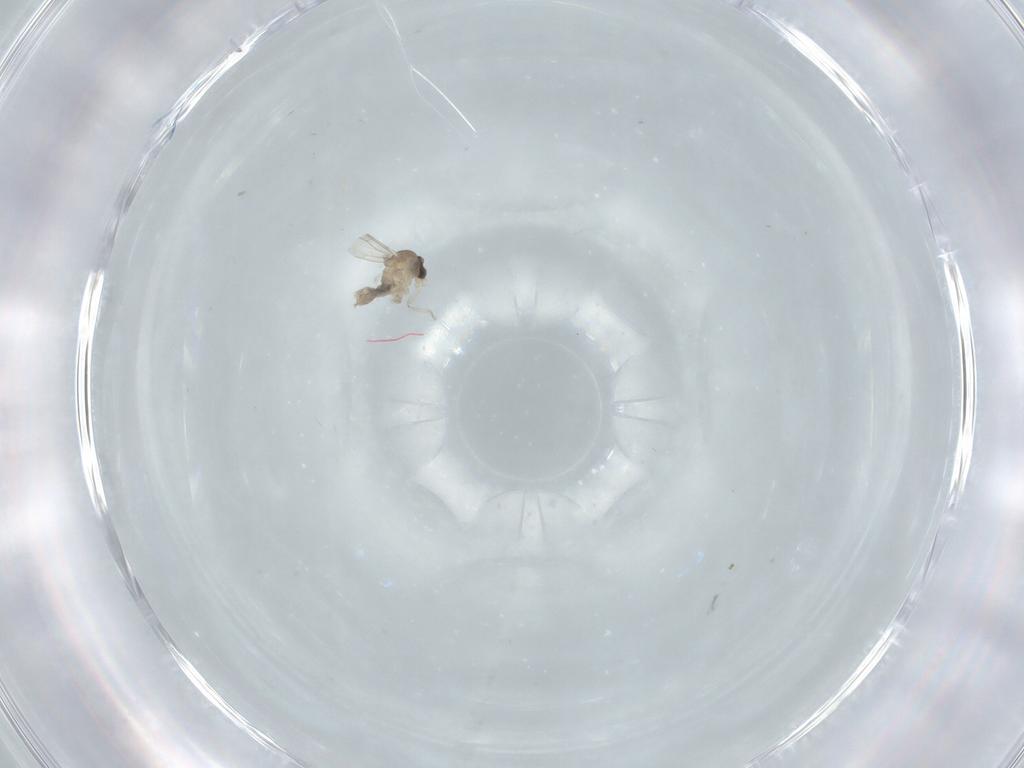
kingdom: Animalia
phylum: Arthropoda
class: Insecta
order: Diptera
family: Cecidomyiidae
